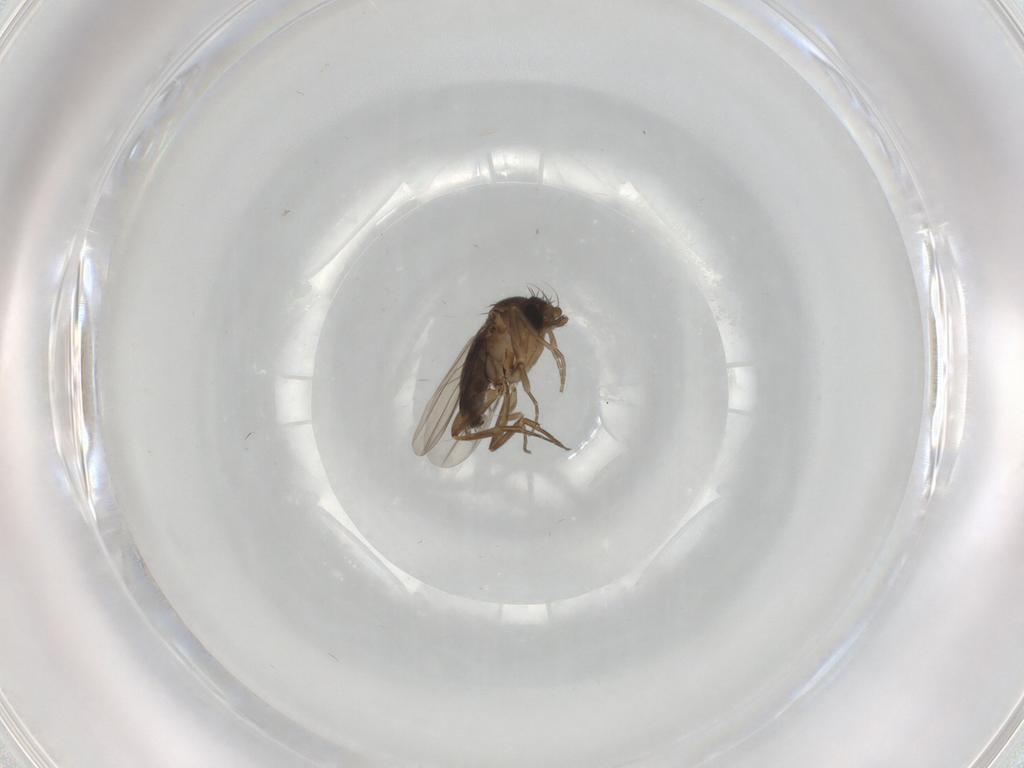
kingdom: Animalia
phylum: Arthropoda
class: Insecta
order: Diptera
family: Phoridae
